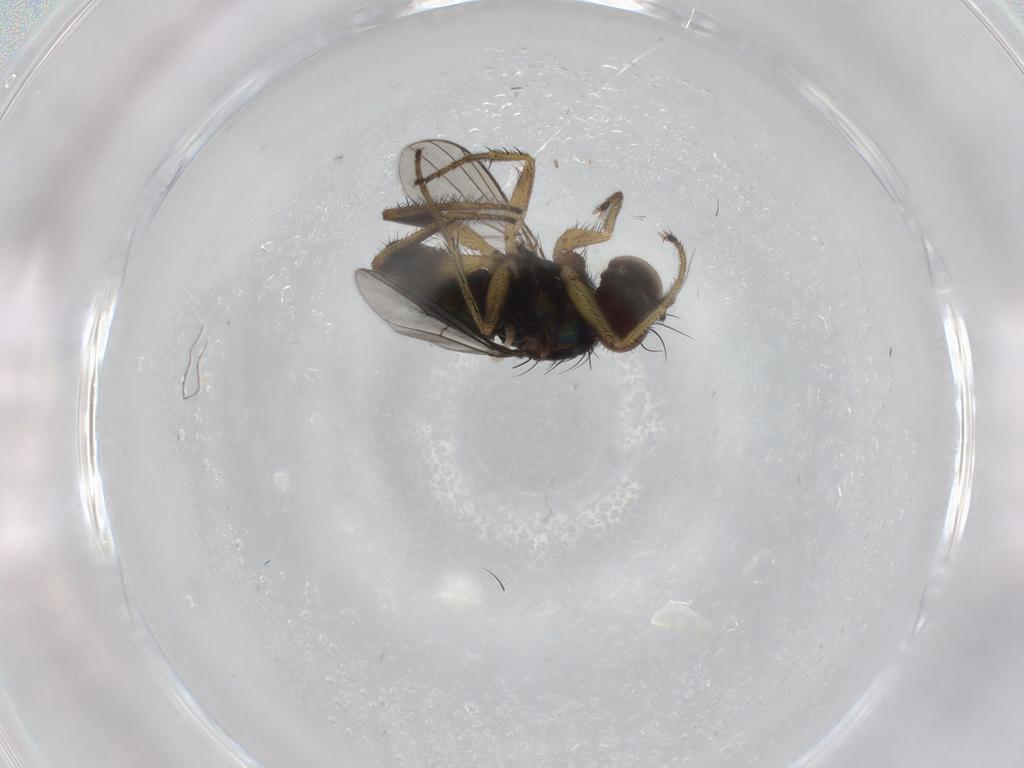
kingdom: Animalia
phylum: Arthropoda
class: Insecta
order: Diptera
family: Dolichopodidae
